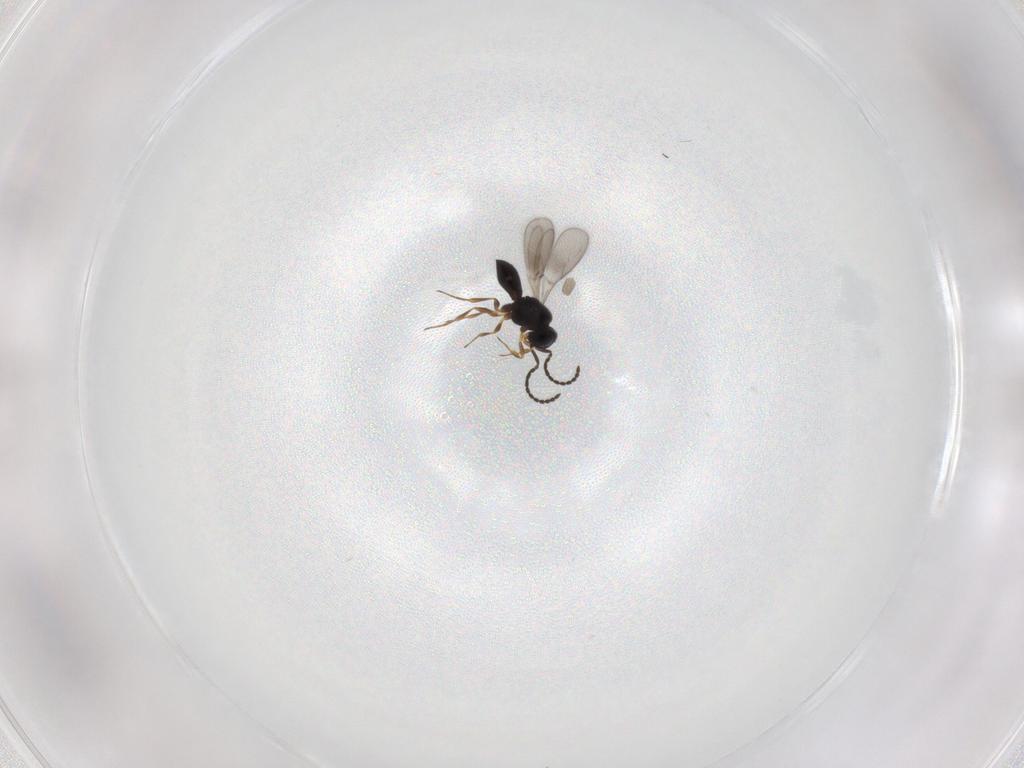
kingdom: Animalia
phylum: Arthropoda
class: Insecta
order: Hymenoptera
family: Scelionidae
